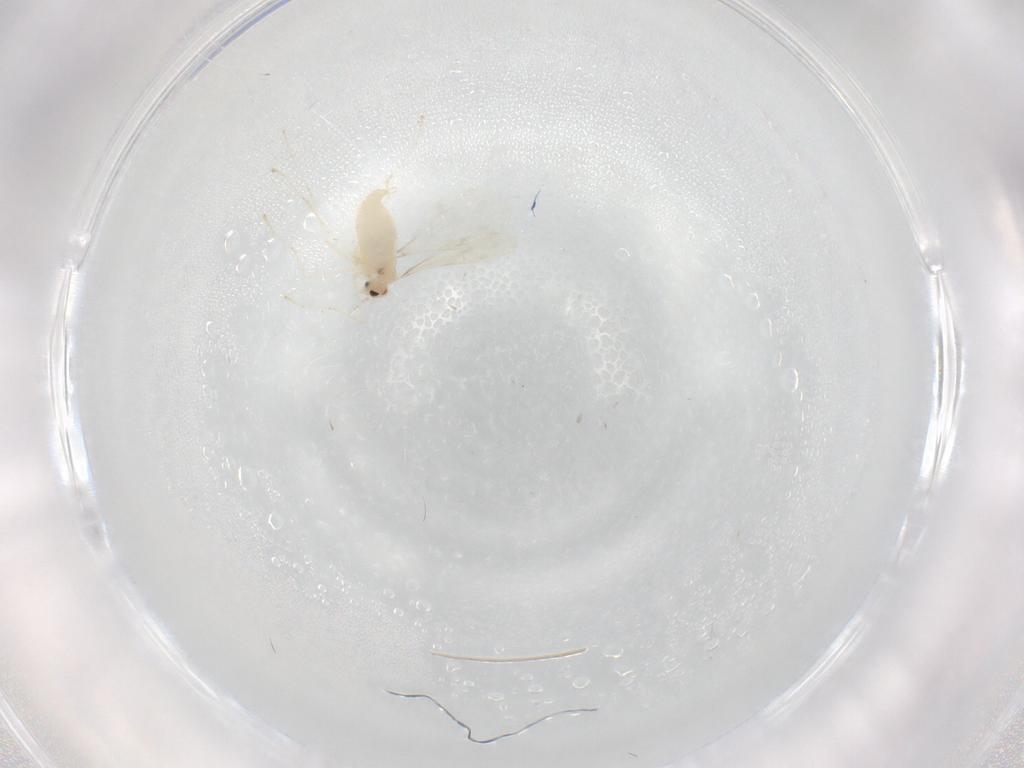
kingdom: Animalia
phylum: Arthropoda
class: Insecta
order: Diptera
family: Cecidomyiidae
